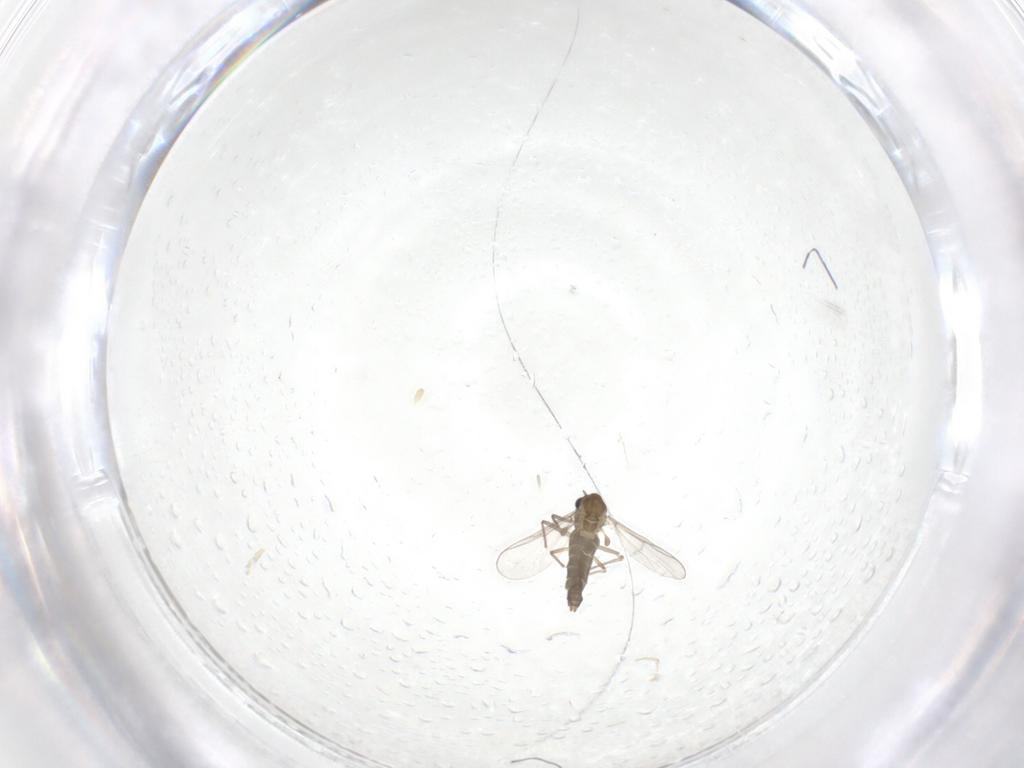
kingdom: Animalia
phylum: Arthropoda
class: Insecta
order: Diptera
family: Chironomidae
